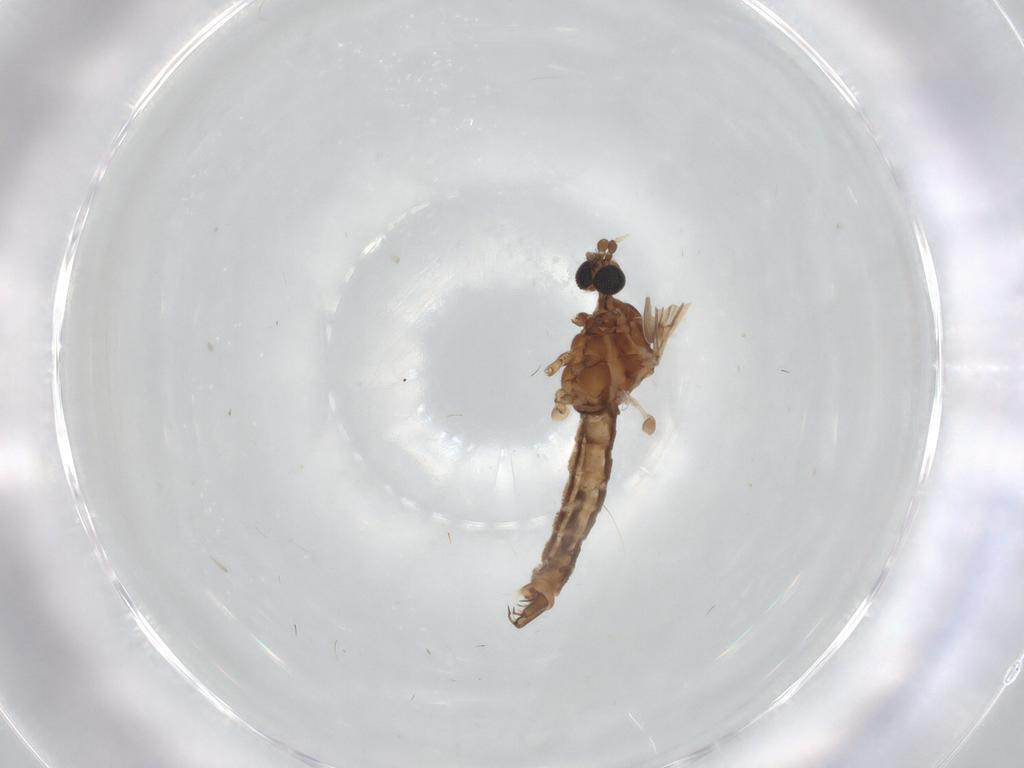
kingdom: Animalia
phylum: Arthropoda
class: Insecta
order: Diptera
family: Limoniidae
